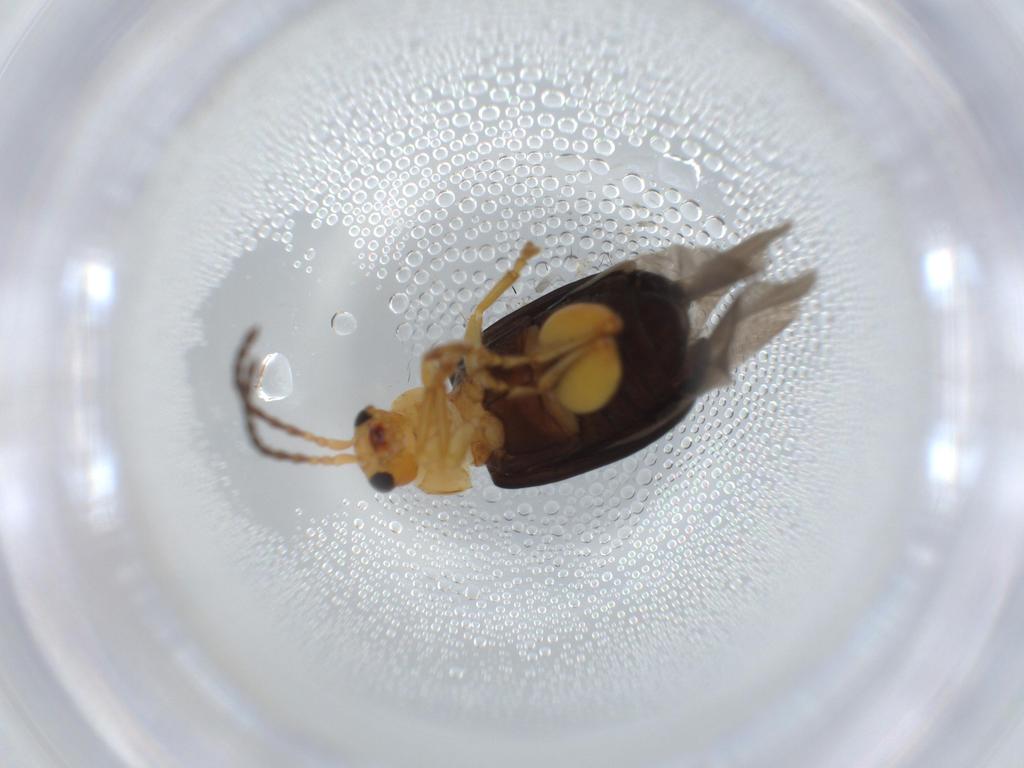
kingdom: Animalia
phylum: Arthropoda
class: Insecta
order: Coleoptera
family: Chrysomelidae
